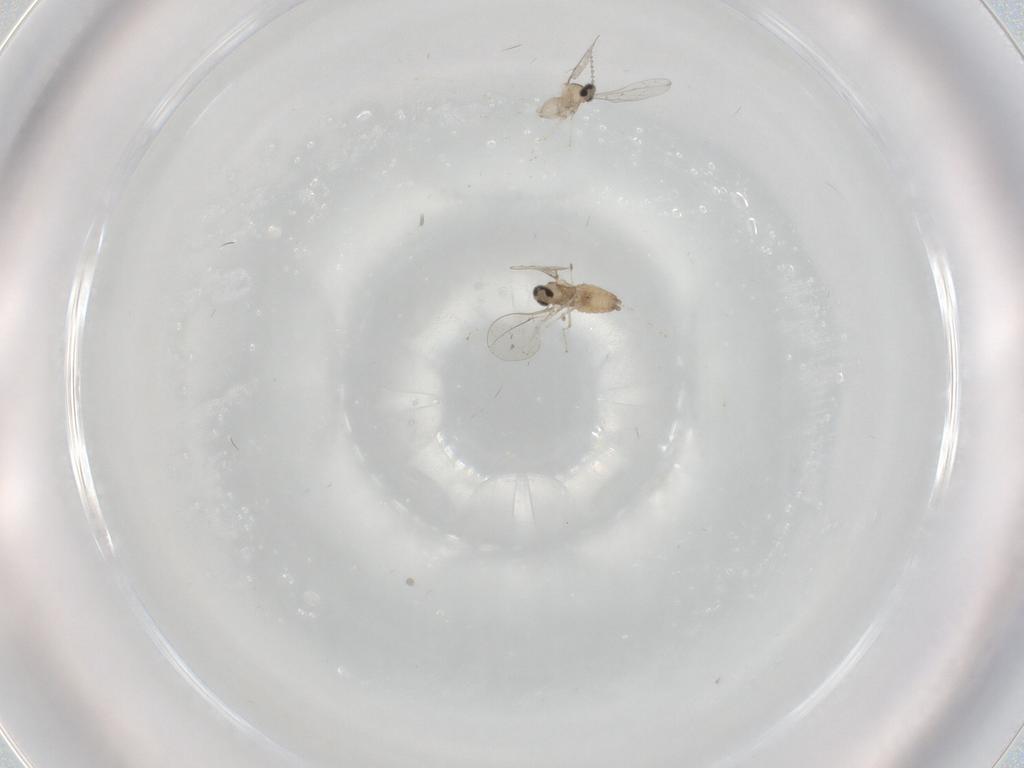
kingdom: Animalia
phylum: Arthropoda
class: Insecta
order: Diptera
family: Cecidomyiidae
